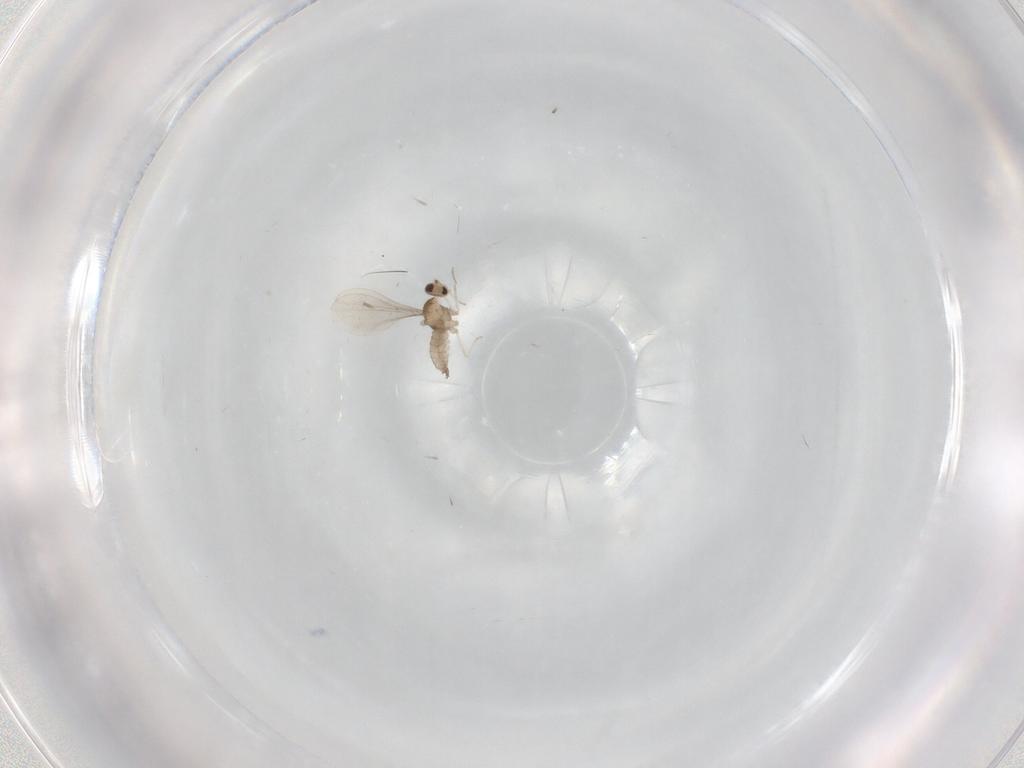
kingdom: Animalia
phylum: Arthropoda
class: Insecta
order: Diptera
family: Cecidomyiidae
